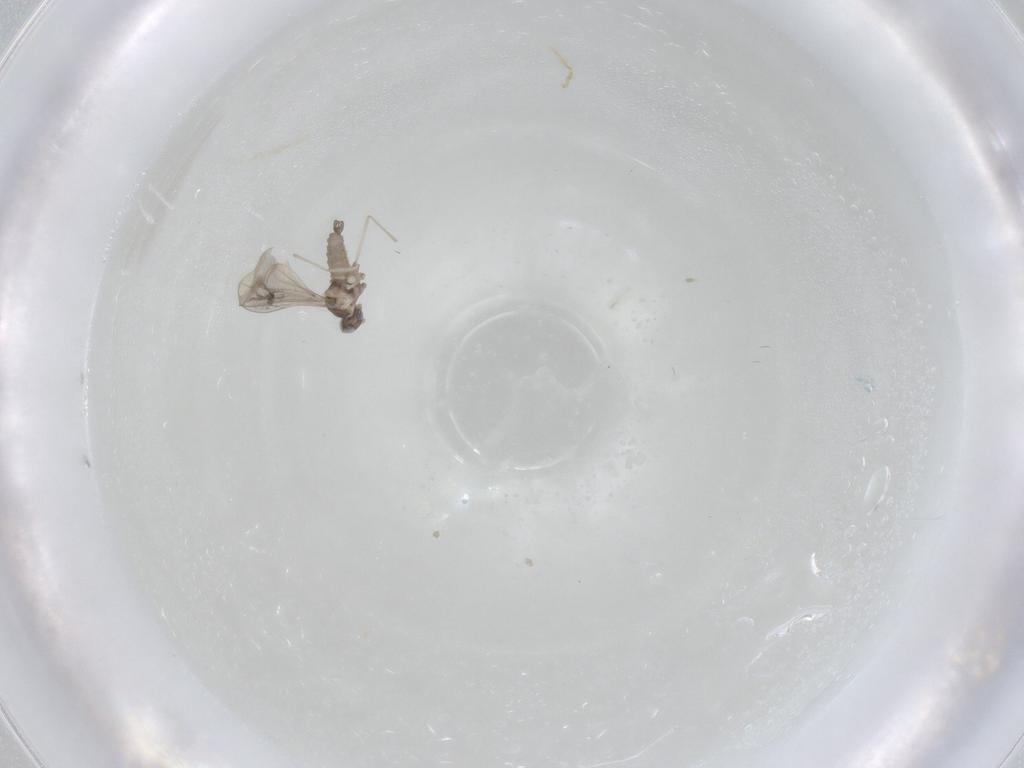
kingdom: Animalia
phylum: Arthropoda
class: Insecta
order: Diptera
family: Cecidomyiidae
